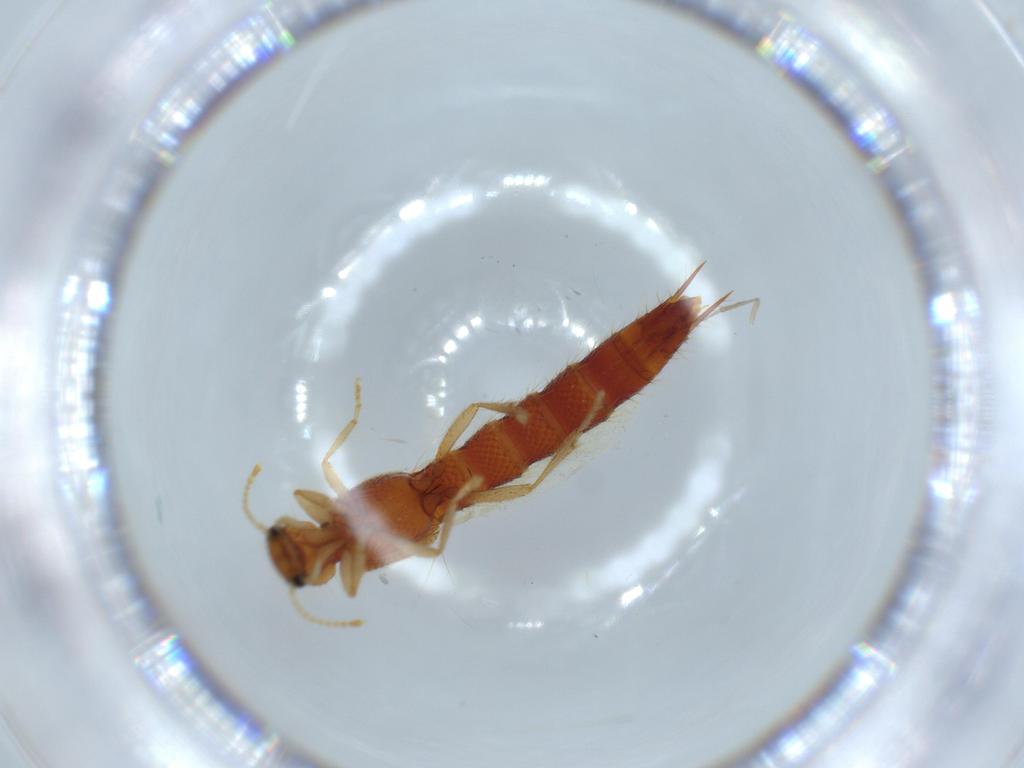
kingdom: Animalia
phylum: Arthropoda
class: Insecta
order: Coleoptera
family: Staphylinidae
